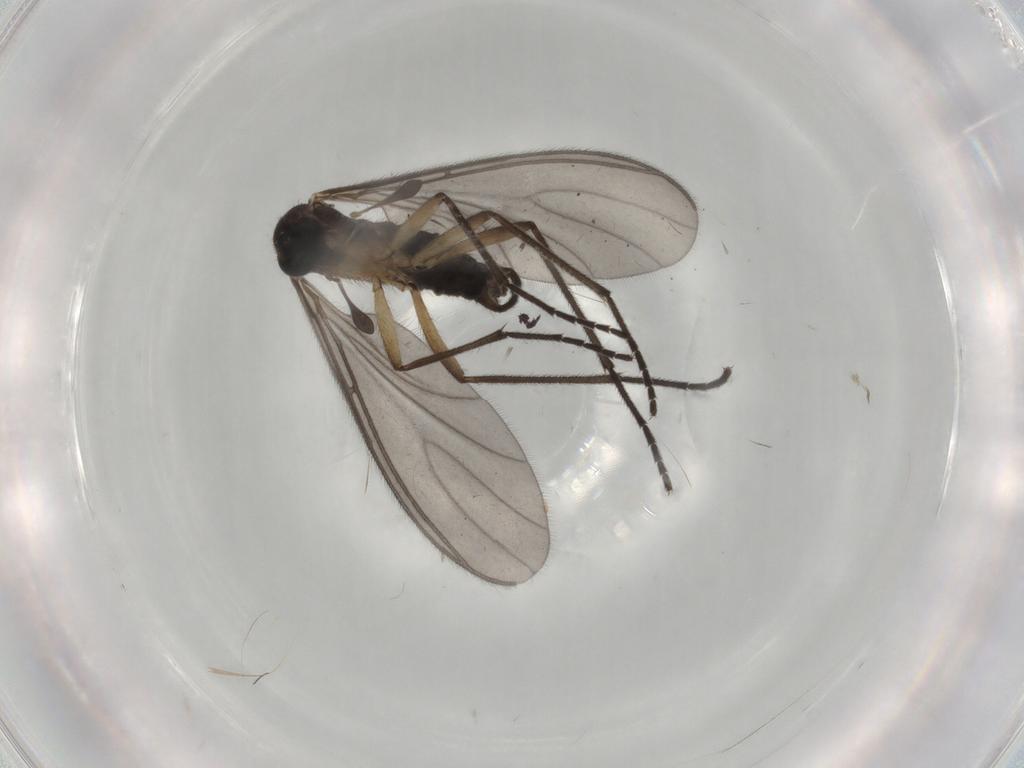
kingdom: Animalia
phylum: Arthropoda
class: Insecta
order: Diptera
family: Sciaridae
